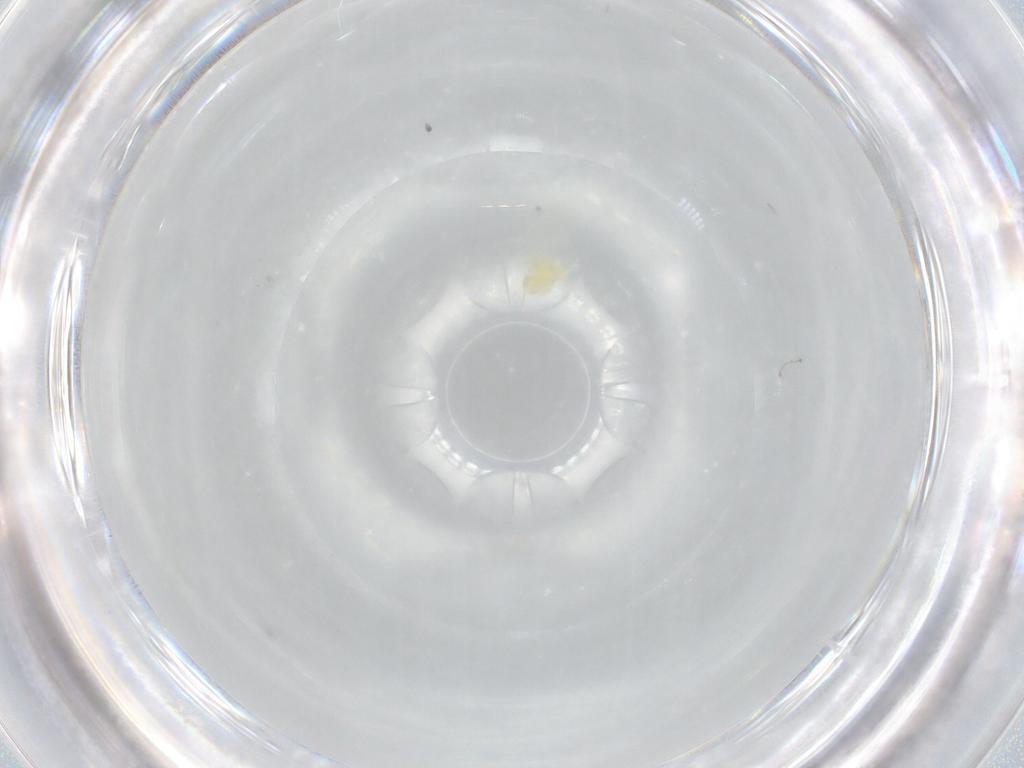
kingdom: Animalia
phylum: Arthropoda
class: Arachnida
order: Trombidiformes
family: Eupodidae
